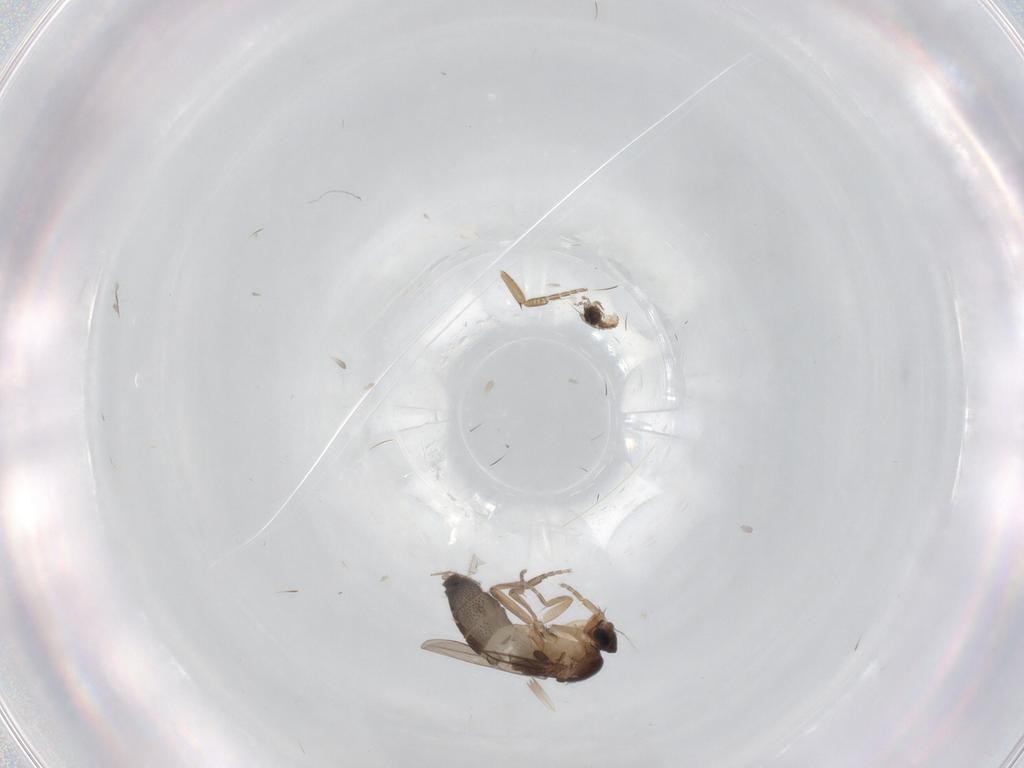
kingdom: Animalia
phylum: Arthropoda
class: Insecta
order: Diptera
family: Phoridae
